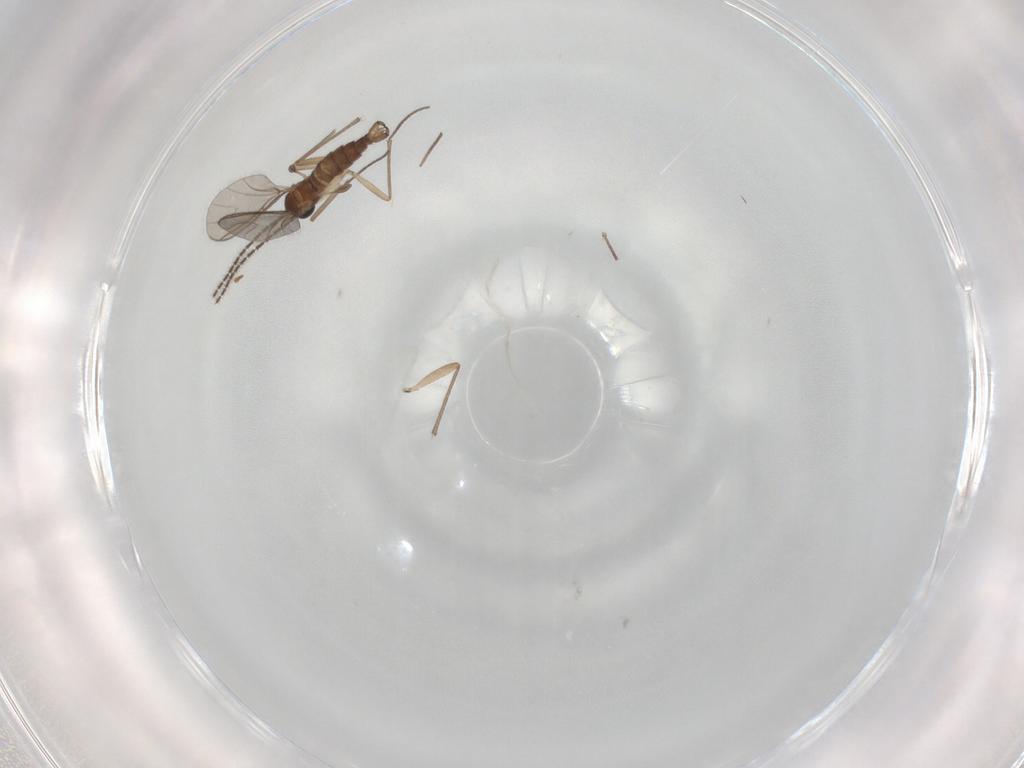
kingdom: Animalia
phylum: Arthropoda
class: Insecta
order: Diptera
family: Sciaridae
